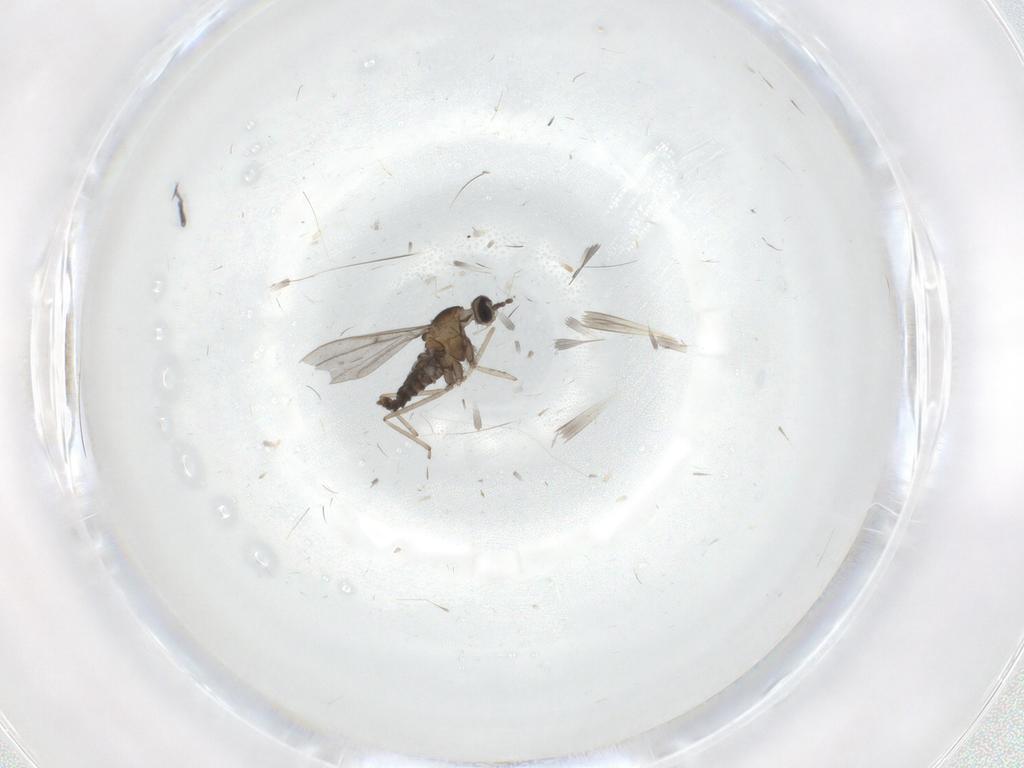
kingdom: Animalia
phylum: Arthropoda
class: Insecta
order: Diptera
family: Cecidomyiidae
